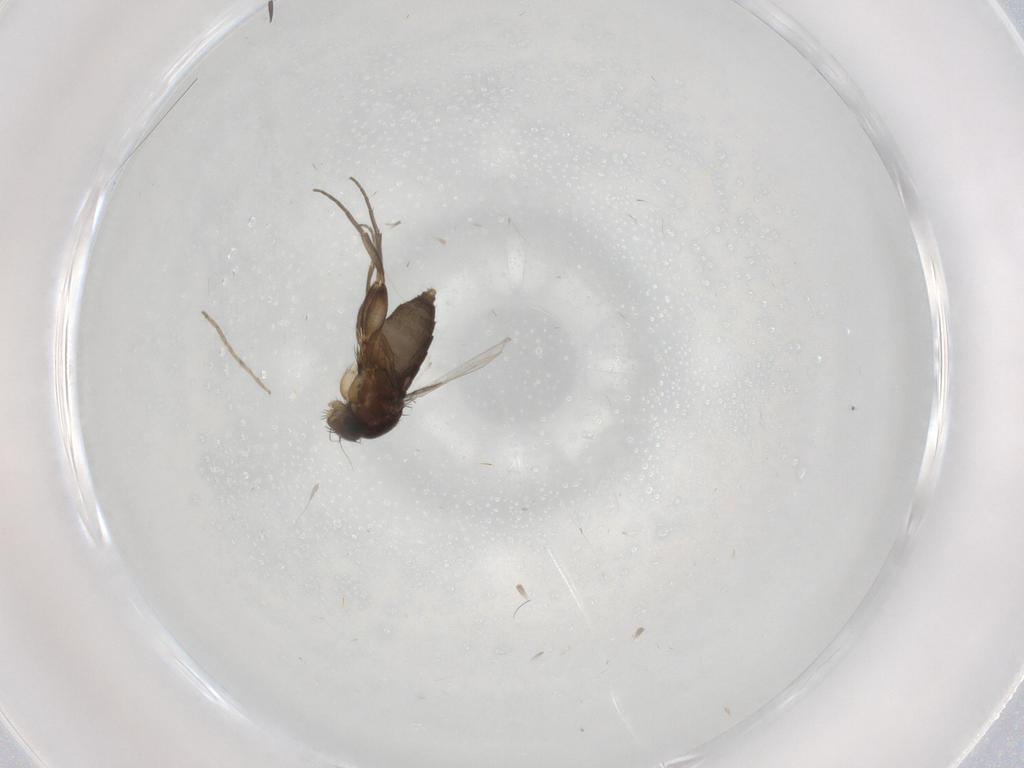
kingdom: Animalia
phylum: Arthropoda
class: Insecta
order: Diptera
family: Phoridae
